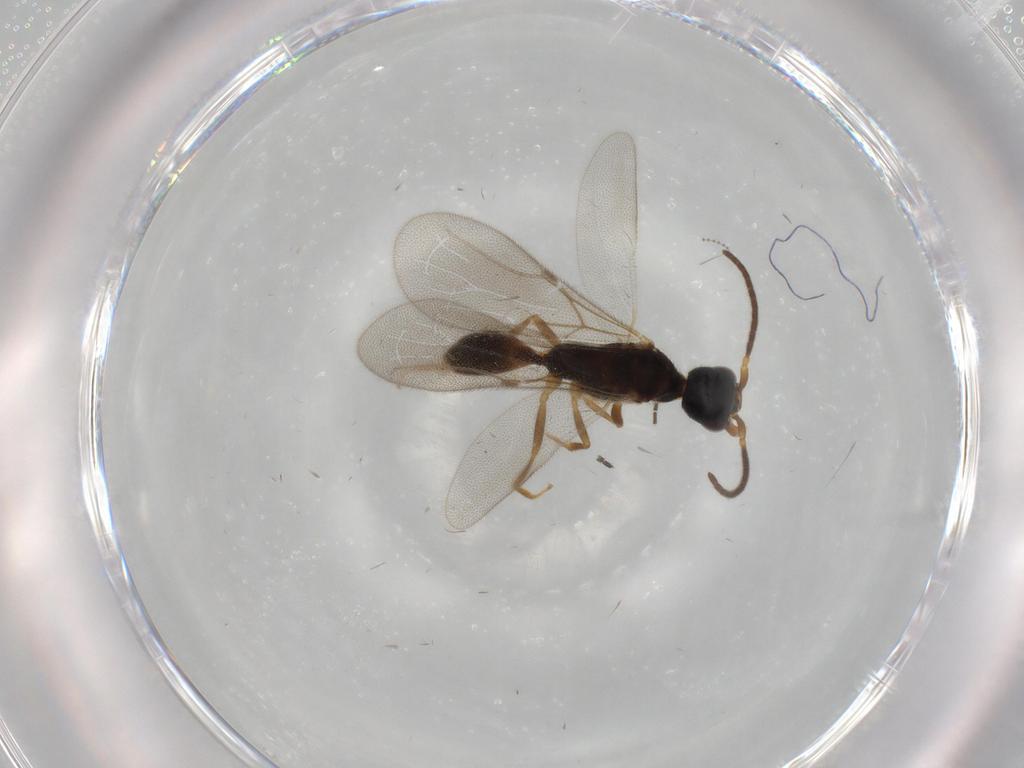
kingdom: Animalia
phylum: Arthropoda
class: Insecta
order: Hymenoptera
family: Bethylidae
